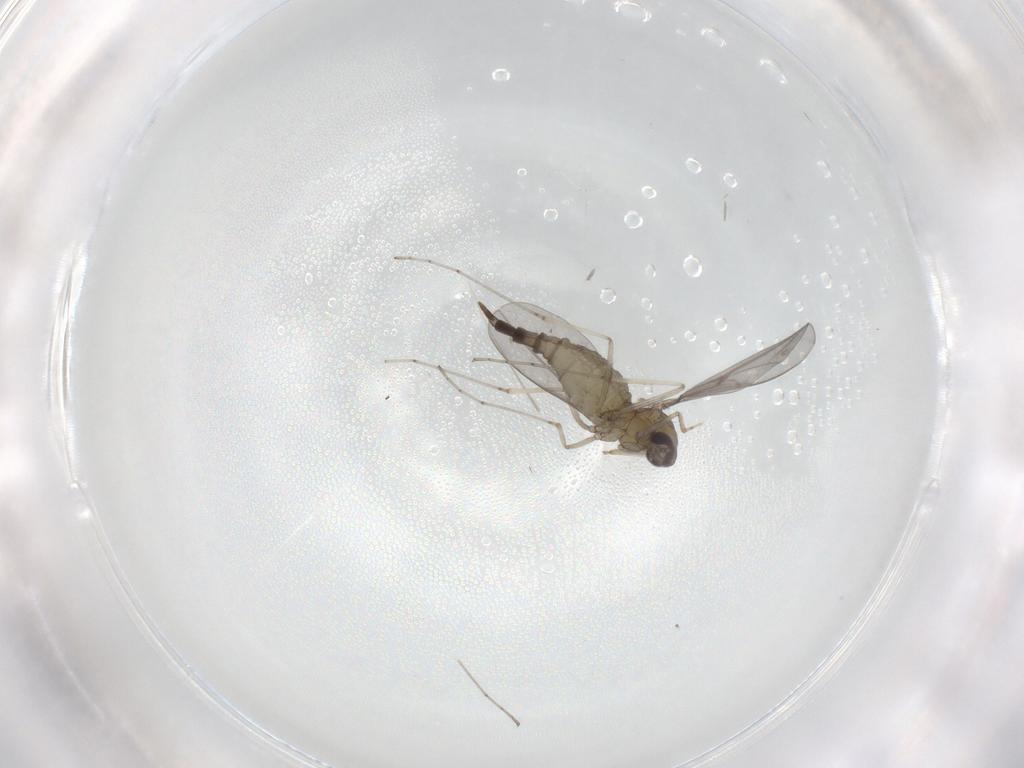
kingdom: Animalia
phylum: Arthropoda
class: Insecta
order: Diptera
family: Cecidomyiidae
